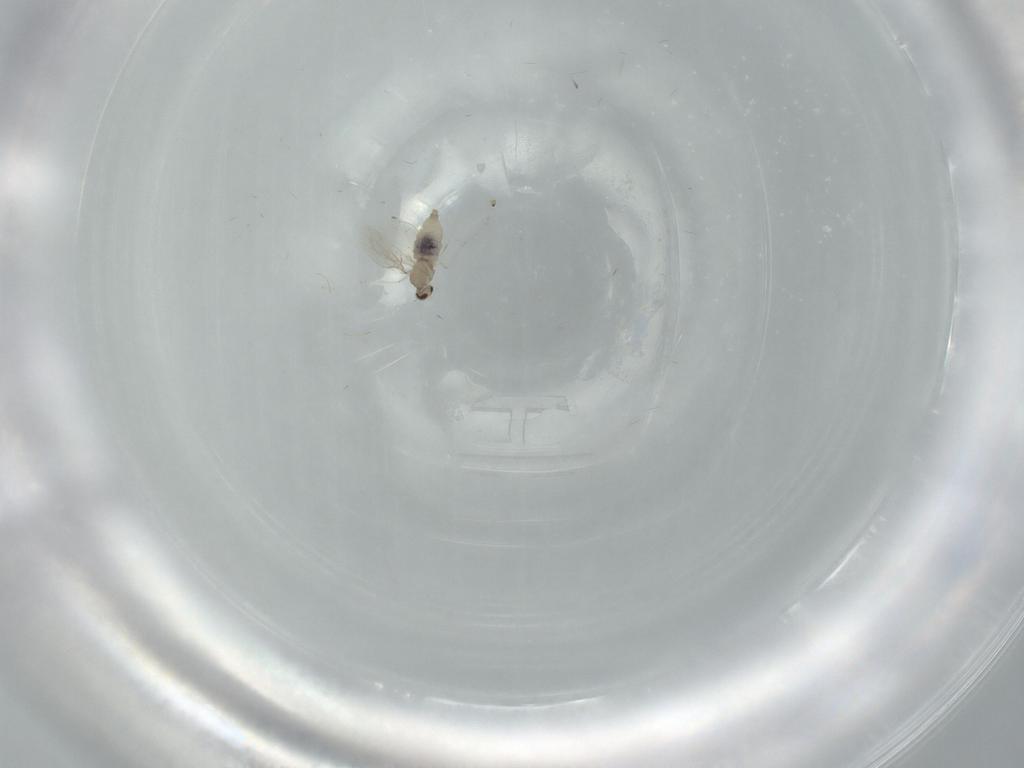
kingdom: Animalia
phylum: Arthropoda
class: Insecta
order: Diptera
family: Cecidomyiidae
